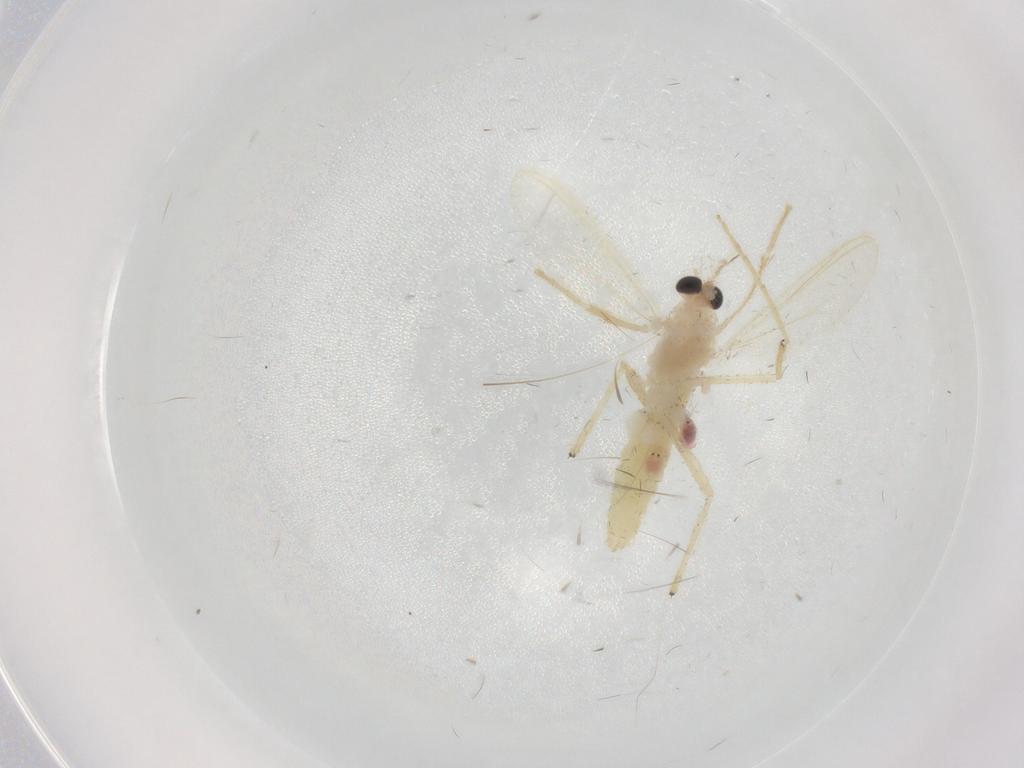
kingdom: Animalia
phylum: Arthropoda
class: Insecta
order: Diptera
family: Chironomidae
